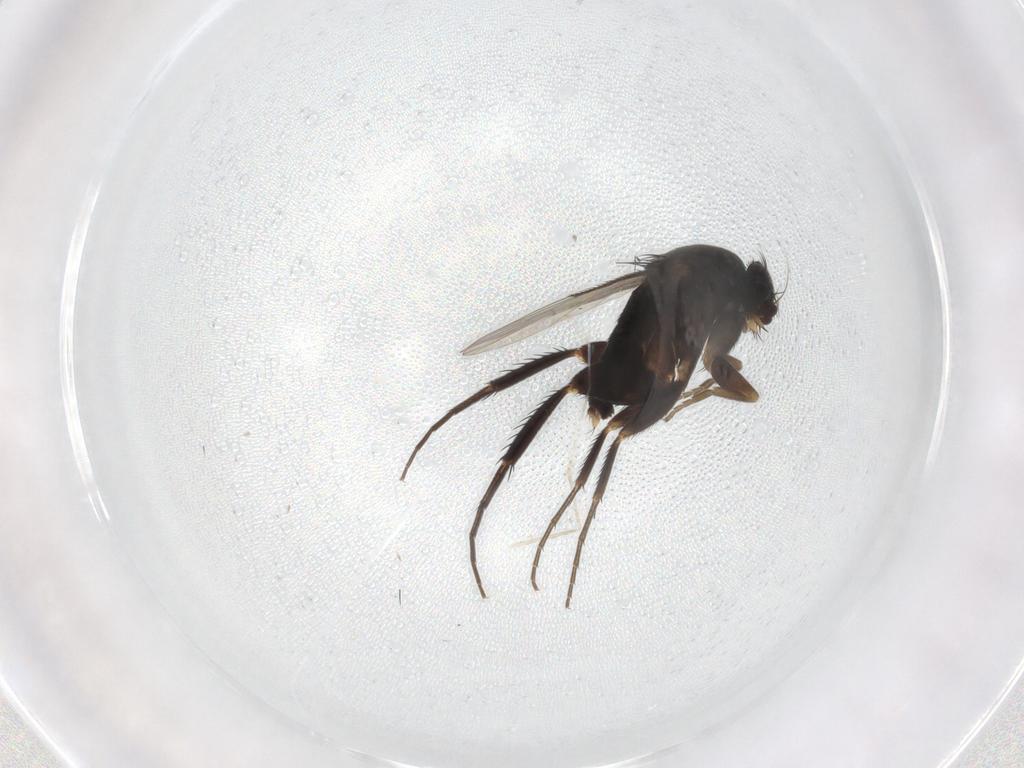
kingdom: Animalia
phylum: Arthropoda
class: Insecta
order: Diptera
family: Phoridae
